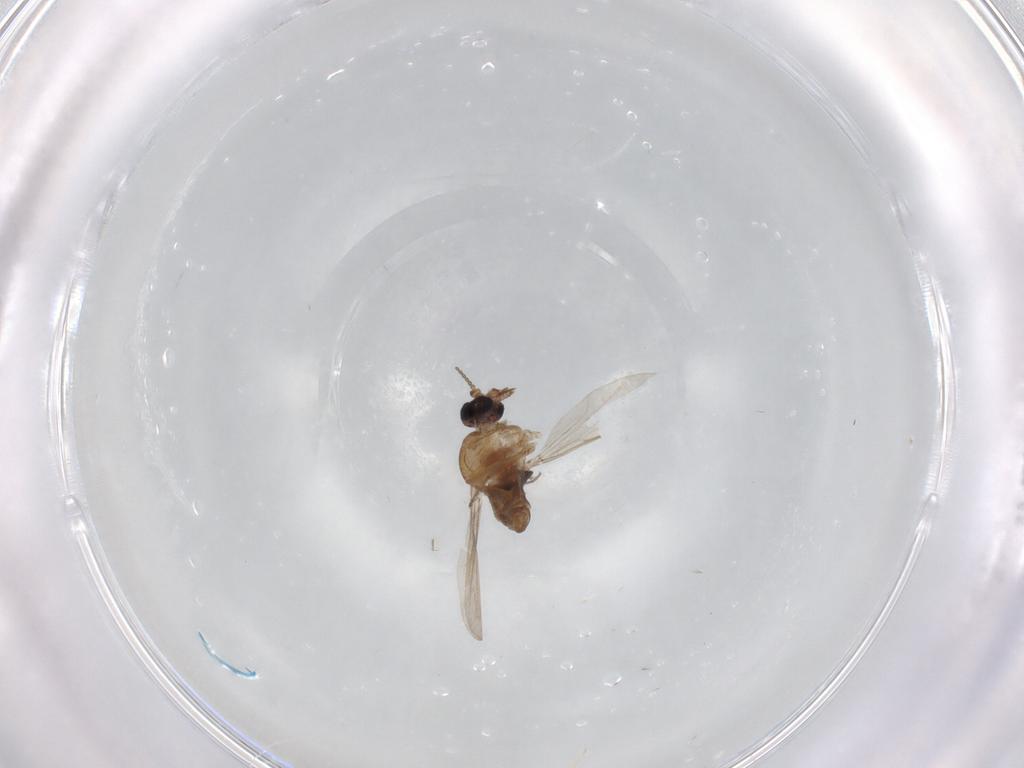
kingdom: Animalia
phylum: Arthropoda
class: Insecta
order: Diptera
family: Ceratopogonidae
